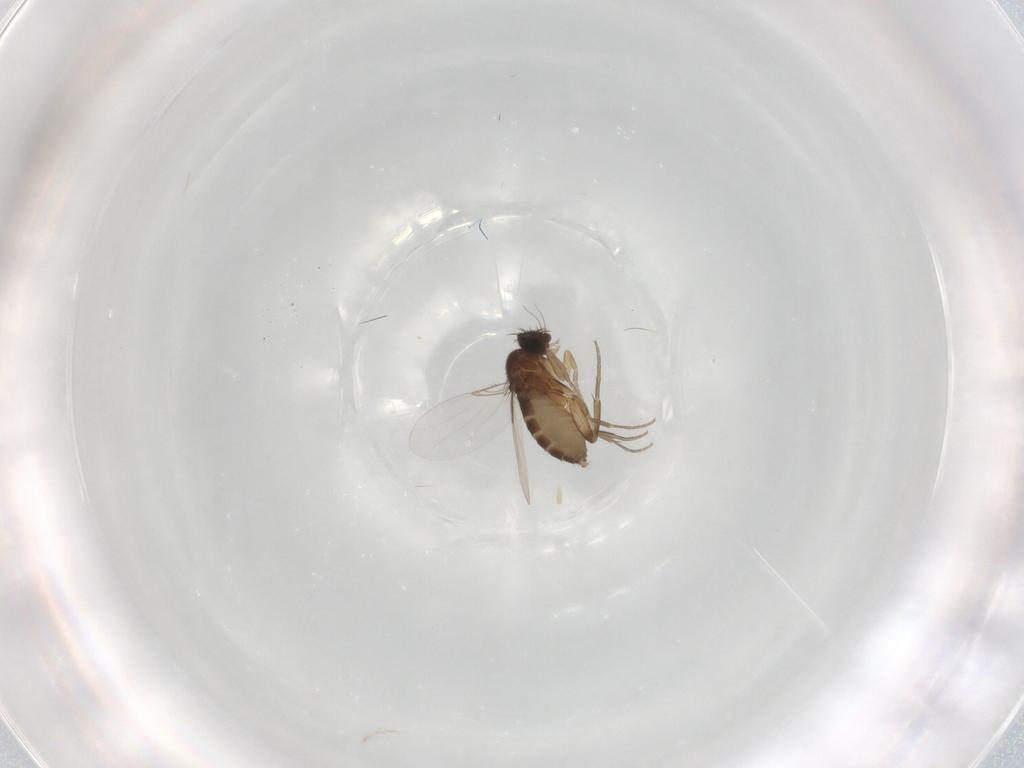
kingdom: Animalia
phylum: Arthropoda
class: Insecta
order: Diptera
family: Phoridae
